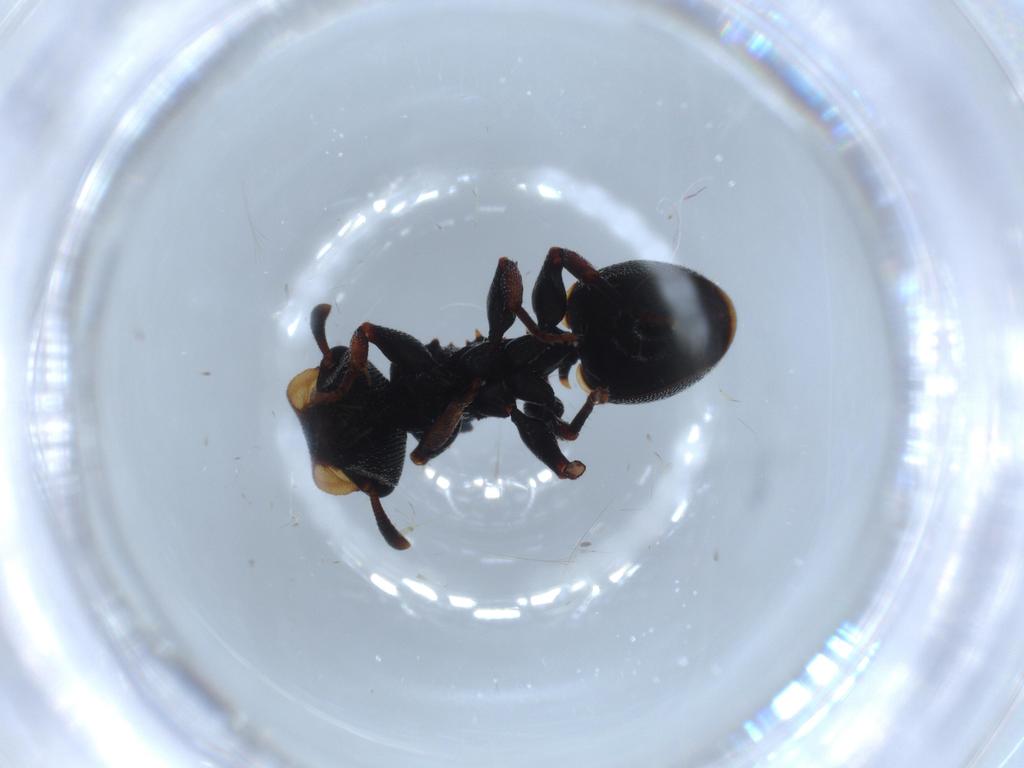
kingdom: Animalia
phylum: Arthropoda
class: Insecta
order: Hymenoptera
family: Formicidae
